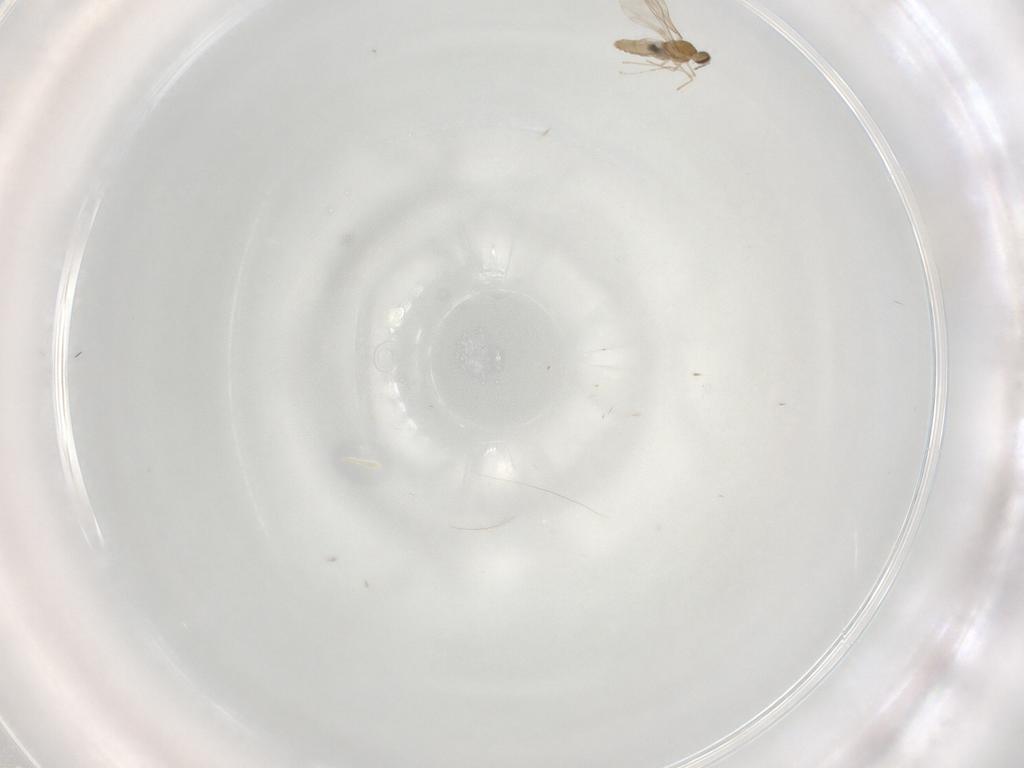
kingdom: Animalia
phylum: Arthropoda
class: Insecta
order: Diptera
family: Cecidomyiidae
